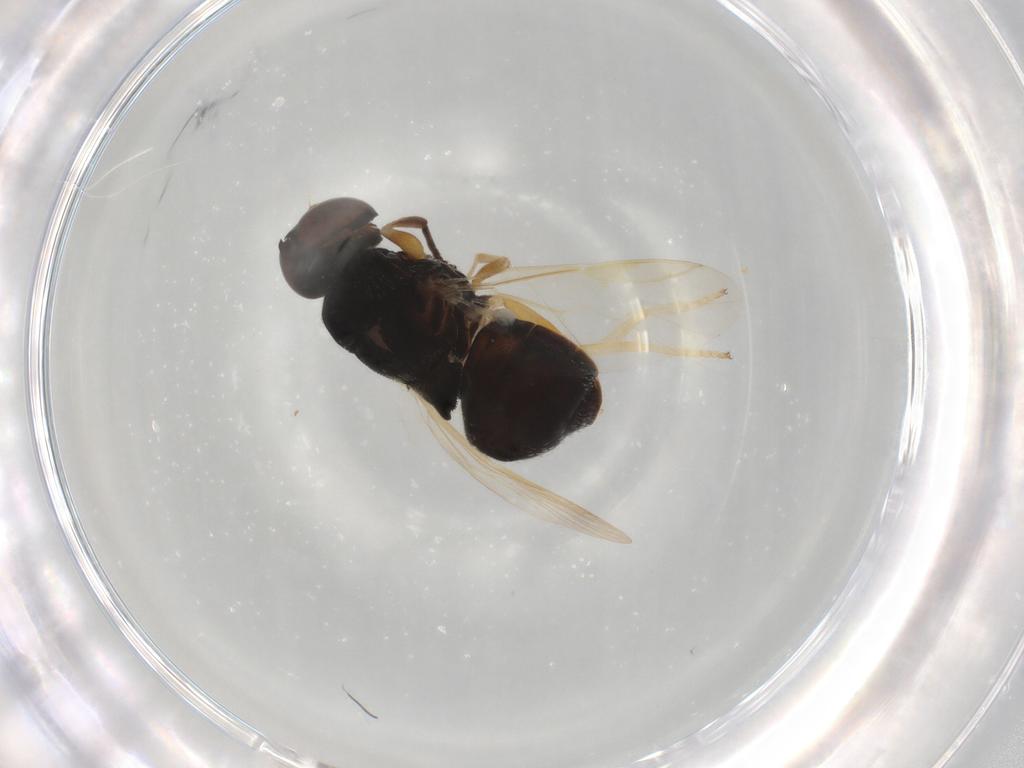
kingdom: Animalia
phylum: Arthropoda
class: Insecta
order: Diptera
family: Stratiomyidae
